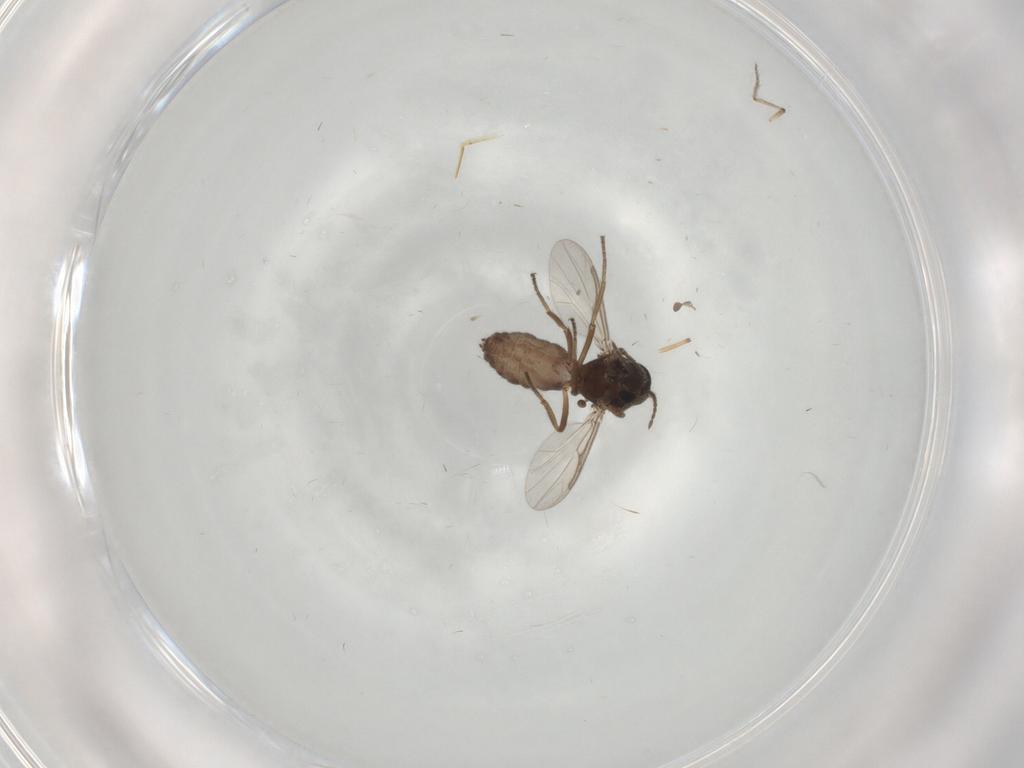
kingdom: Animalia
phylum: Arthropoda
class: Insecta
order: Diptera
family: Ceratopogonidae
